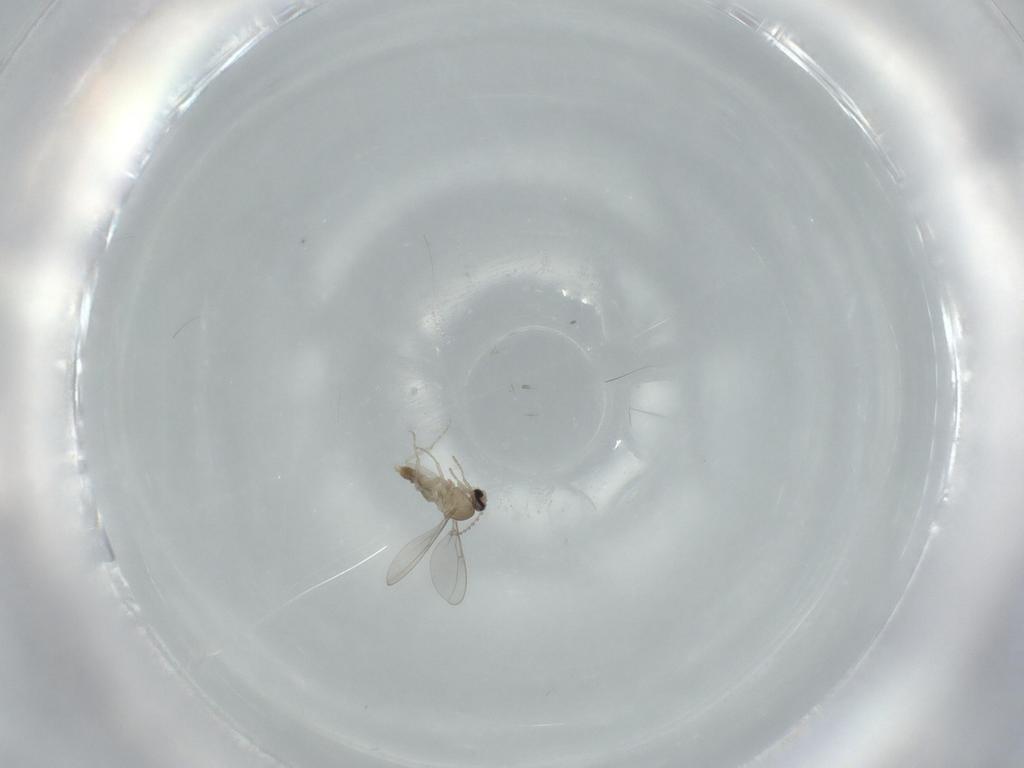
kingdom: Animalia
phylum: Arthropoda
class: Insecta
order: Diptera
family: Cecidomyiidae
